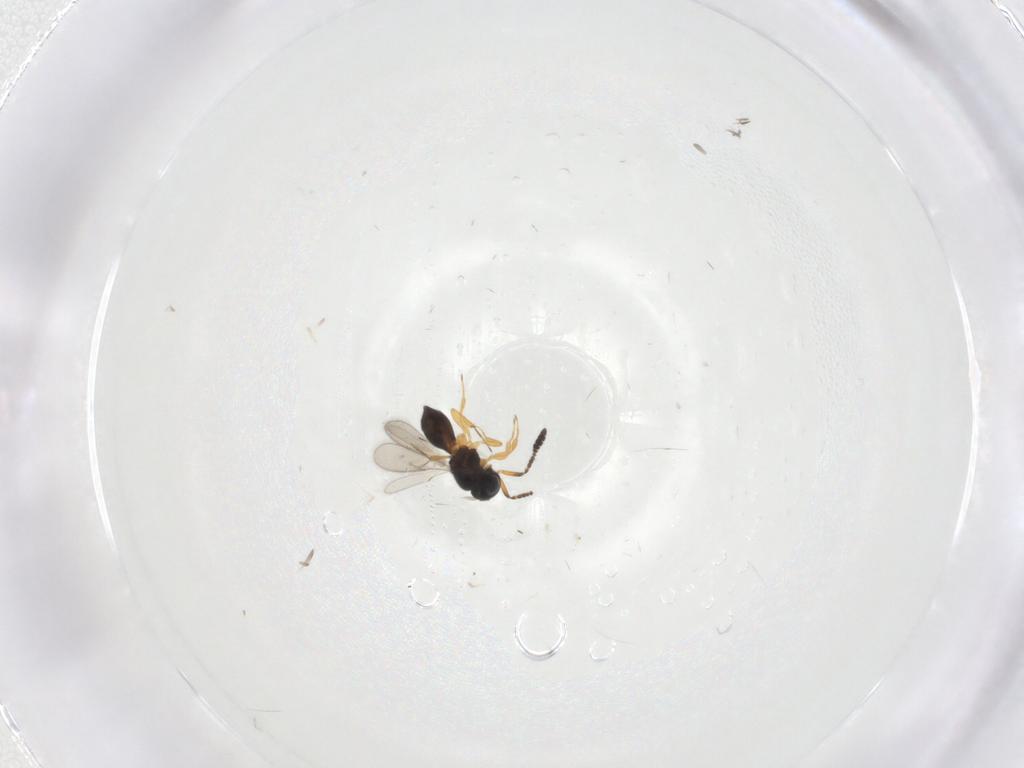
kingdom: Animalia
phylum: Arthropoda
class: Insecta
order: Hymenoptera
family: Scelionidae
